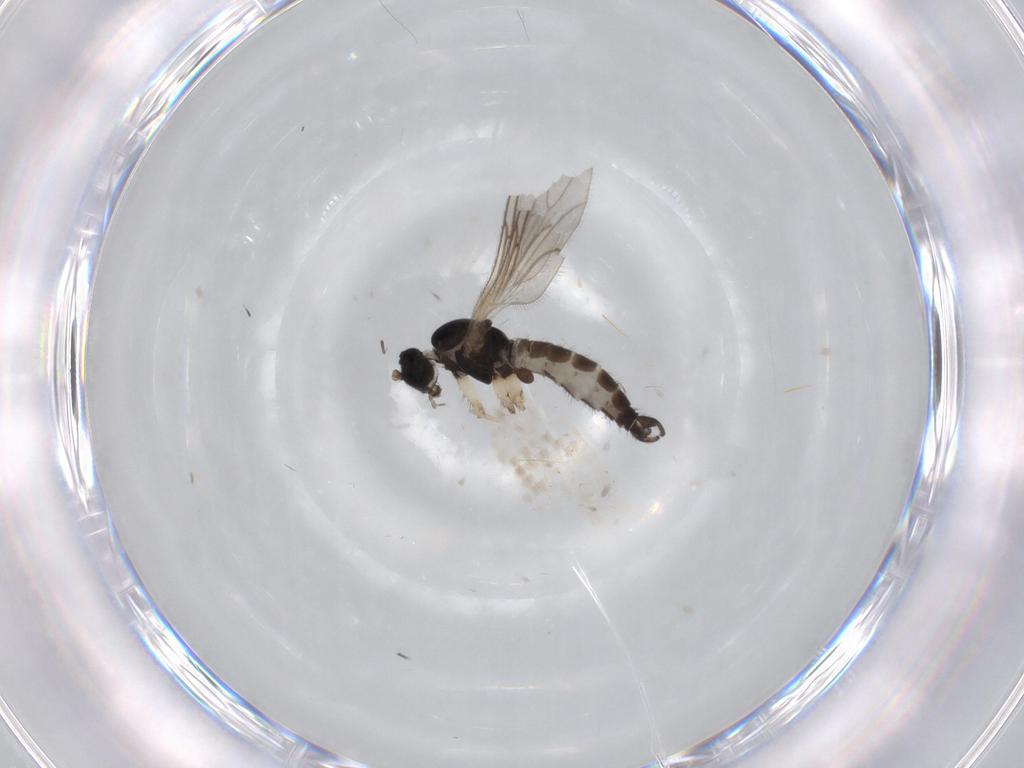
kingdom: Animalia
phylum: Arthropoda
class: Insecta
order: Diptera
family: Sciaridae
